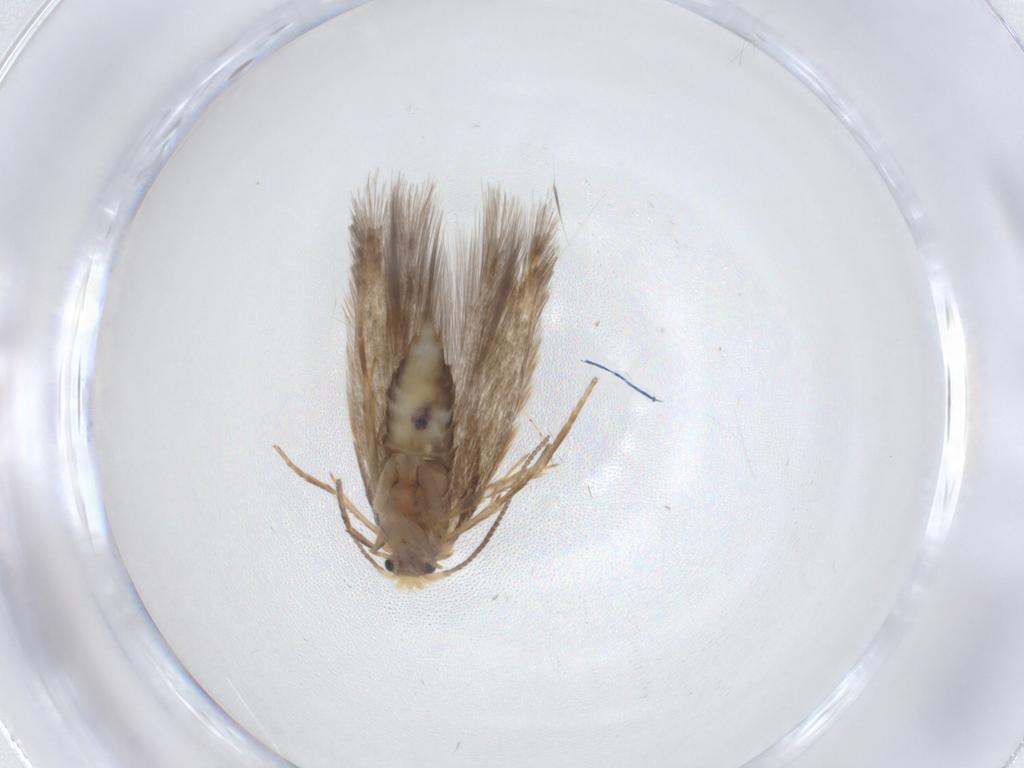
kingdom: Animalia
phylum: Arthropoda
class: Insecta
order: Lepidoptera
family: Nepticulidae
